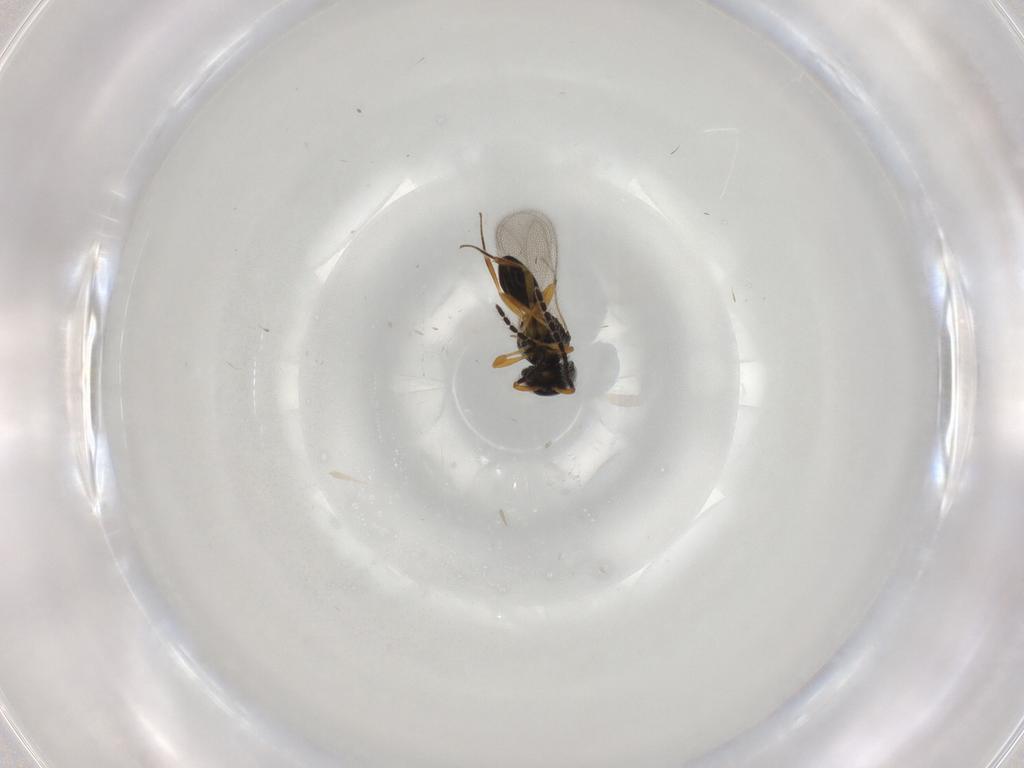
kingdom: Animalia
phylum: Arthropoda
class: Insecta
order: Hymenoptera
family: Scelionidae
